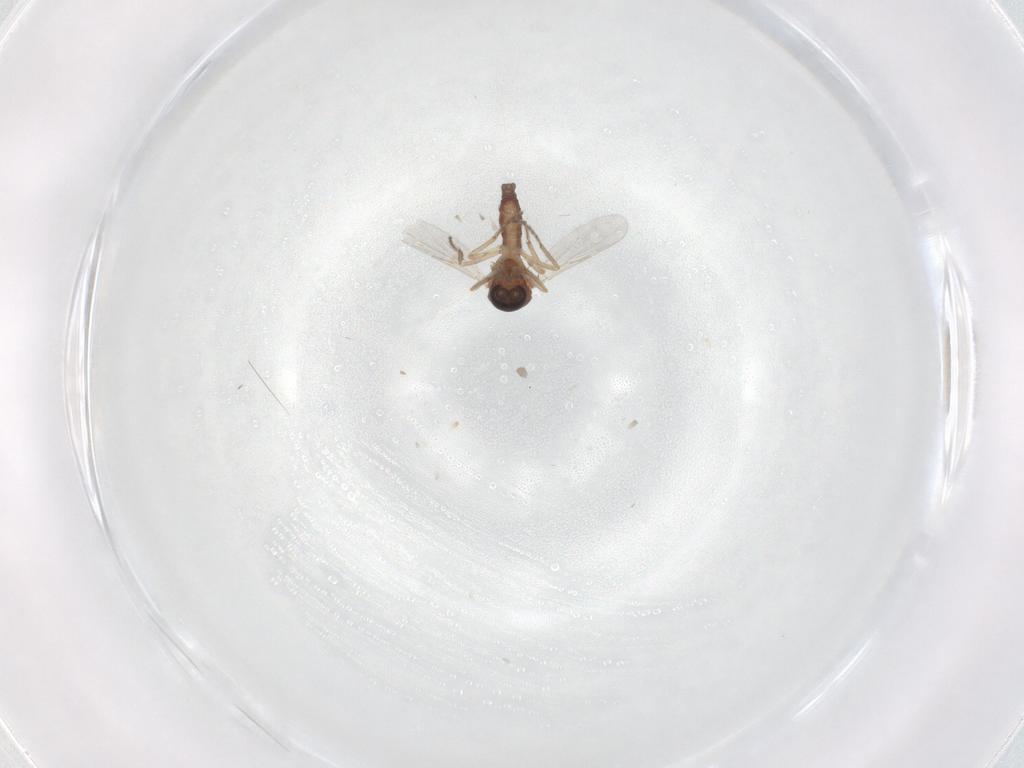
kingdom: Animalia
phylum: Arthropoda
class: Insecta
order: Diptera
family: Ceratopogonidae
